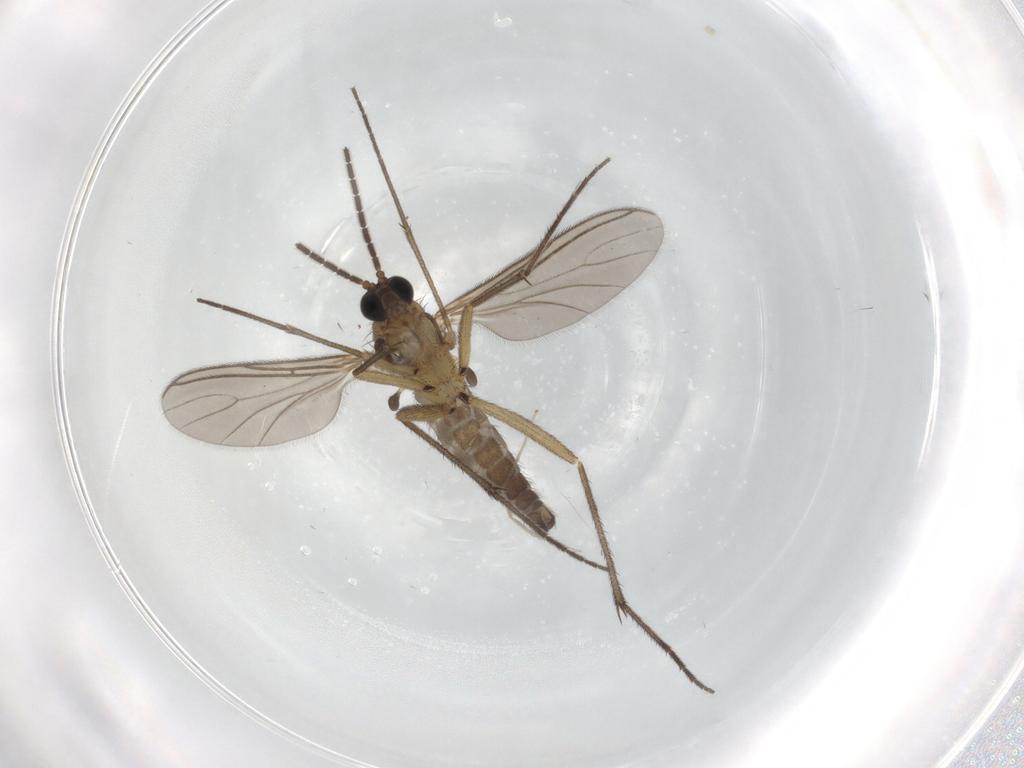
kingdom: Animalia
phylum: Arthropoda
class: Insecta
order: Diptera
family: Sciaridae
